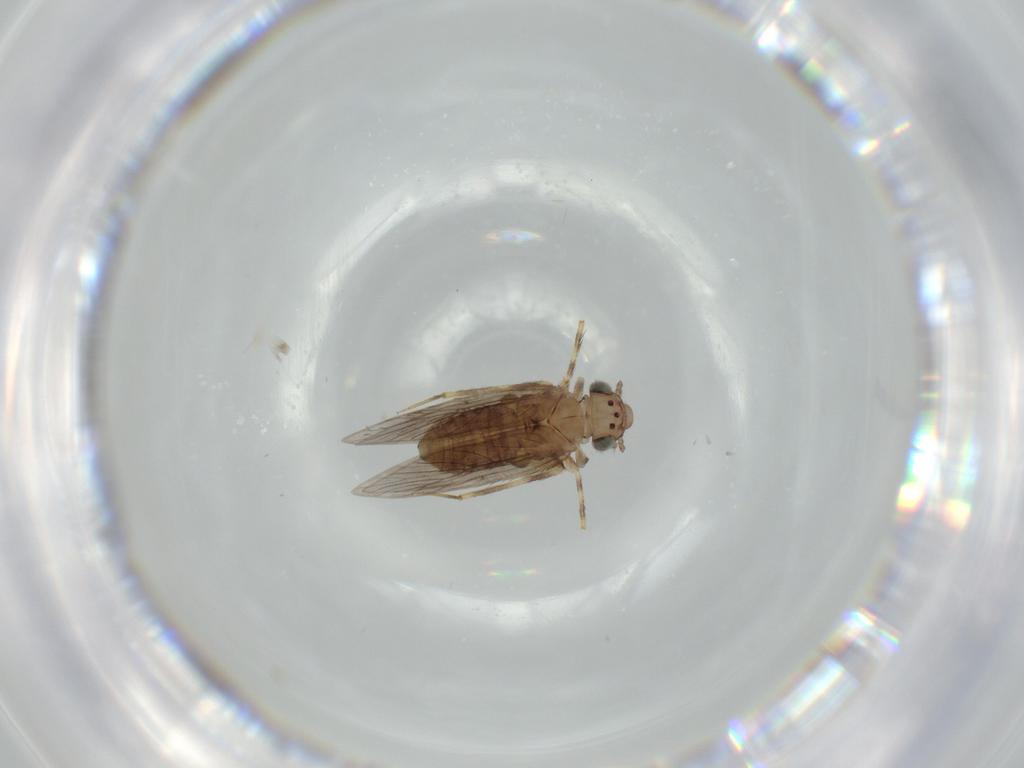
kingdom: Animalia
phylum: Arthropoda
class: Insecta
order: Psocodea
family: Lepidopsocidae
